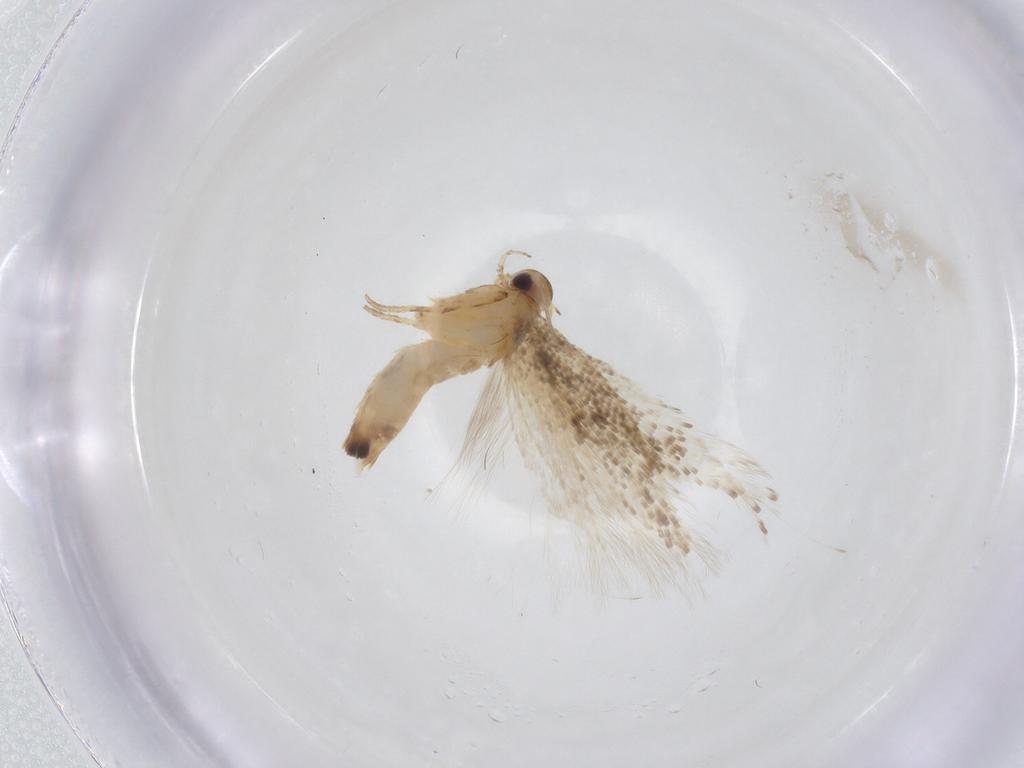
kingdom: Animalia
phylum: Arthropoda
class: Insecta
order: Lepidoptera
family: Gelechiidae
